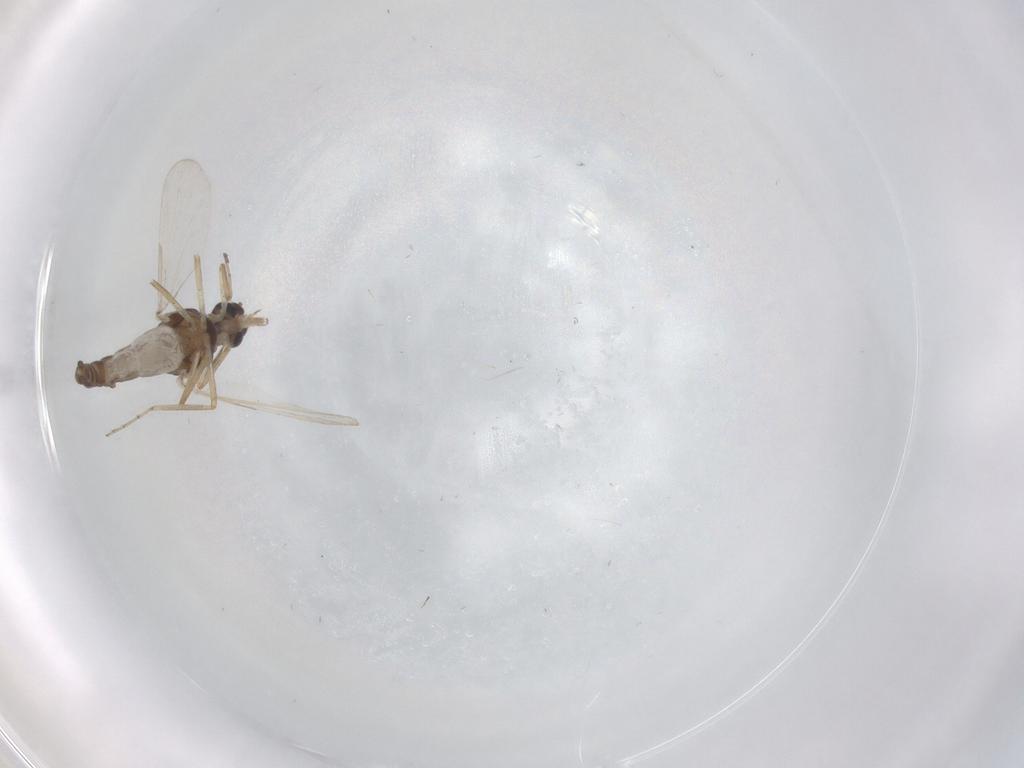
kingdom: Animalia
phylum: Arthropoda
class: Insecta
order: Diptera
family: Ceratopogonidae
